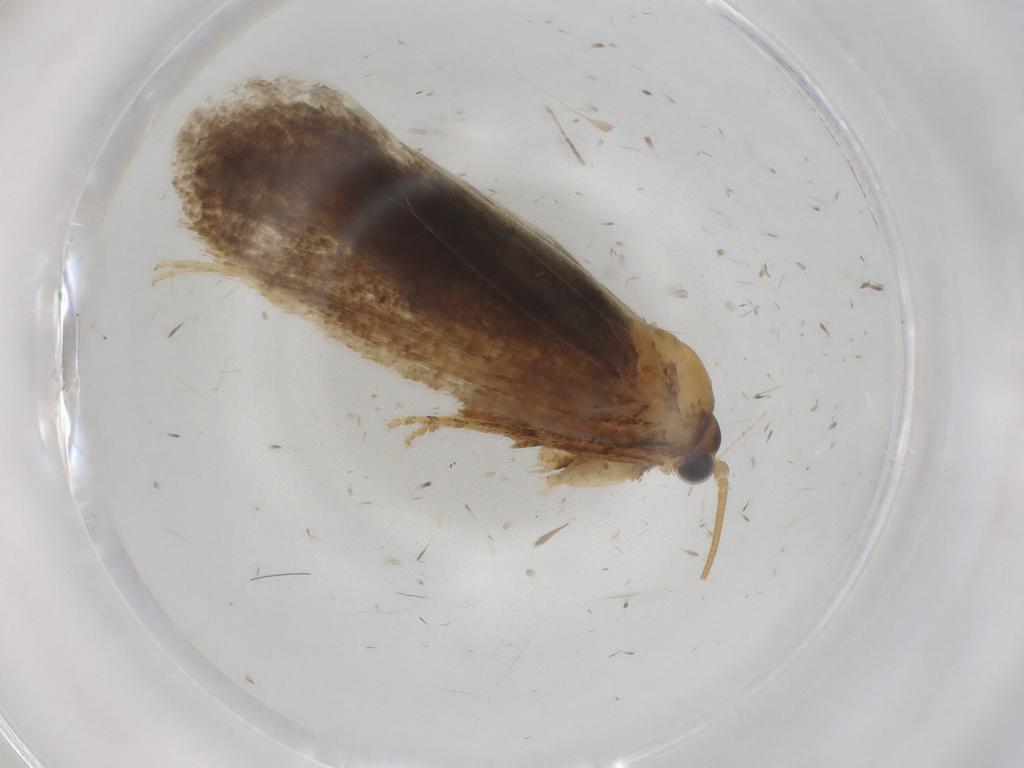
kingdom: Animalia
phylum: Arthropoda
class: Insecta
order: Lepidoptera
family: Nepticulidae
